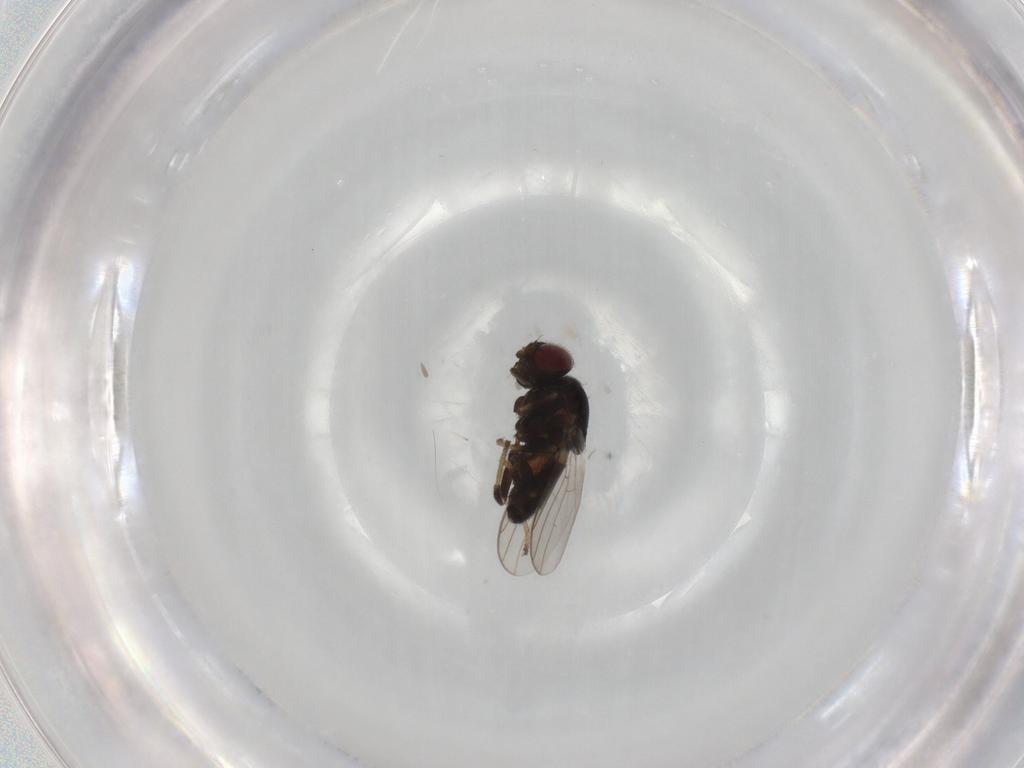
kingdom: Animalia
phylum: Arthropoda
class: Insecta
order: Diptera
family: Chloropidae
